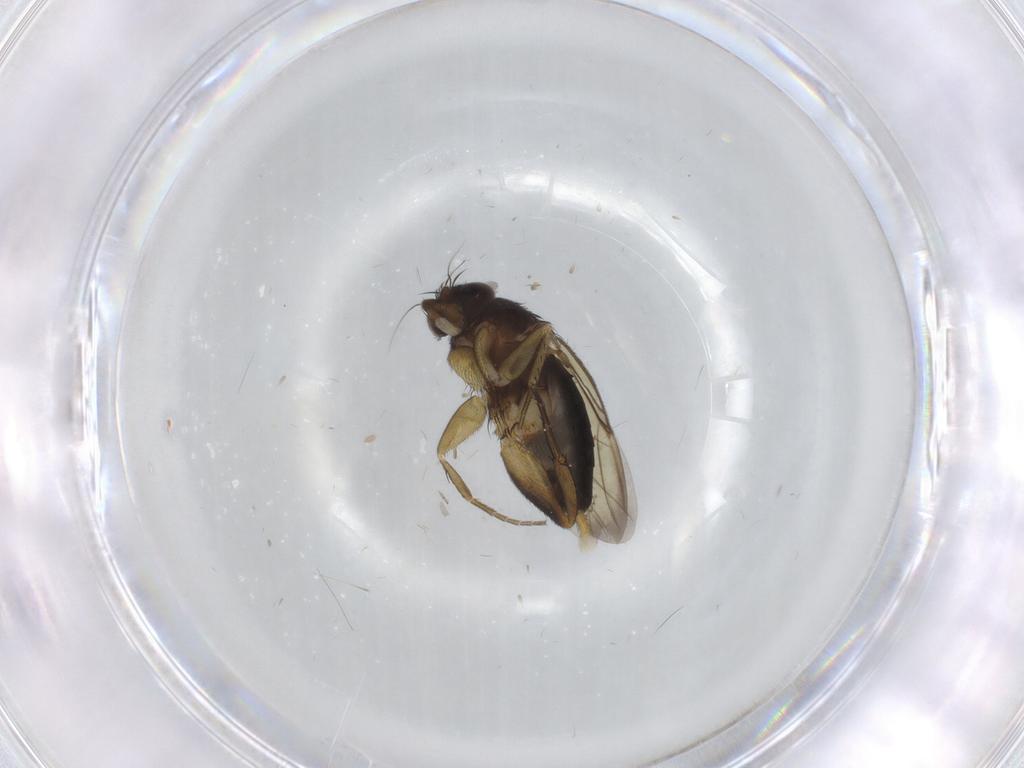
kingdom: Animalia
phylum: Arthropoda
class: Insecta
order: Diptera
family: Phoridae
